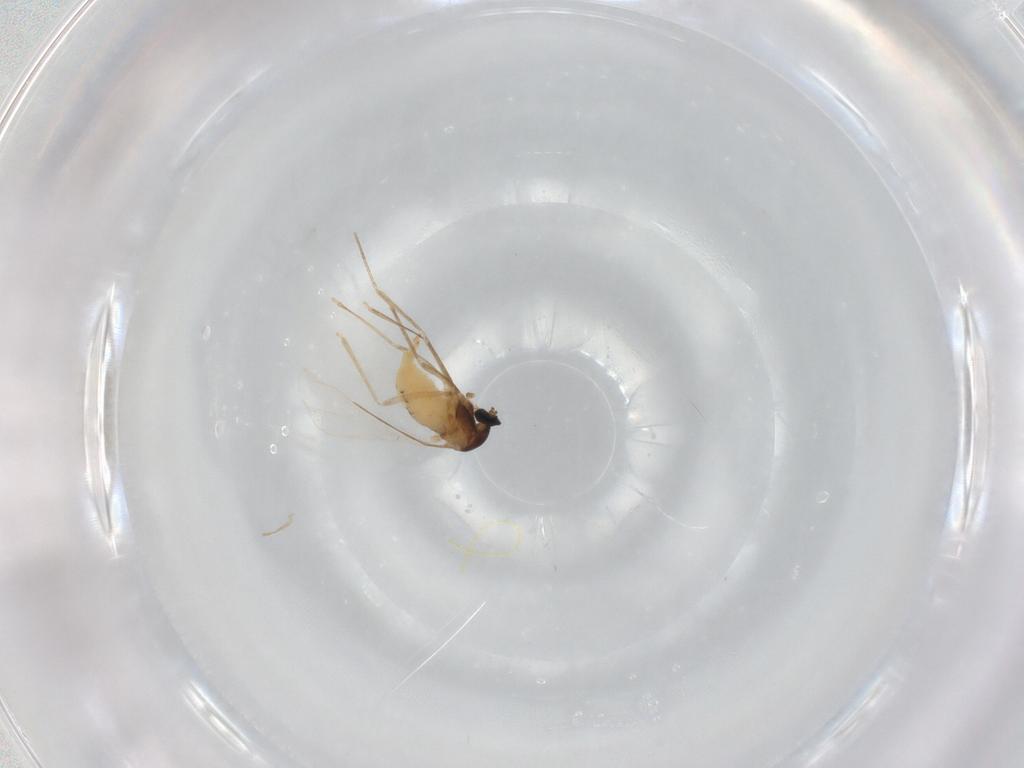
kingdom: Animalia
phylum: Arthropoda
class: Insecta
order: Diptera
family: Cecidomyiidae
